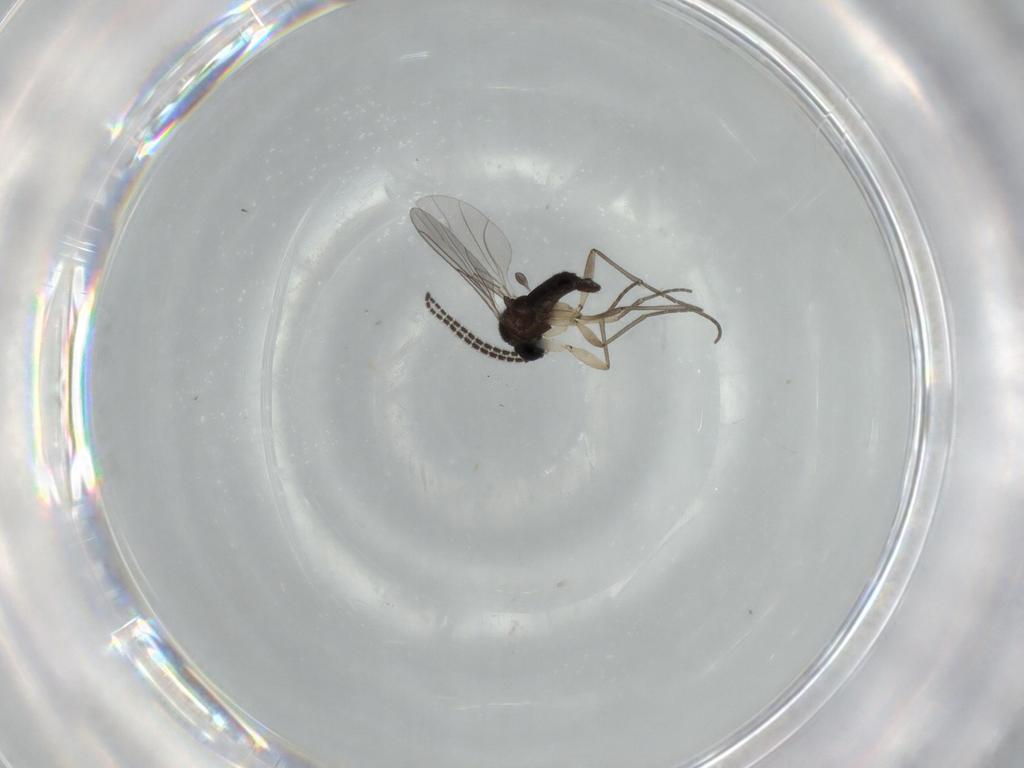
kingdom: Animalia
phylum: Arthropoda
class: Insecta
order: Diptera
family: Sciaridae
